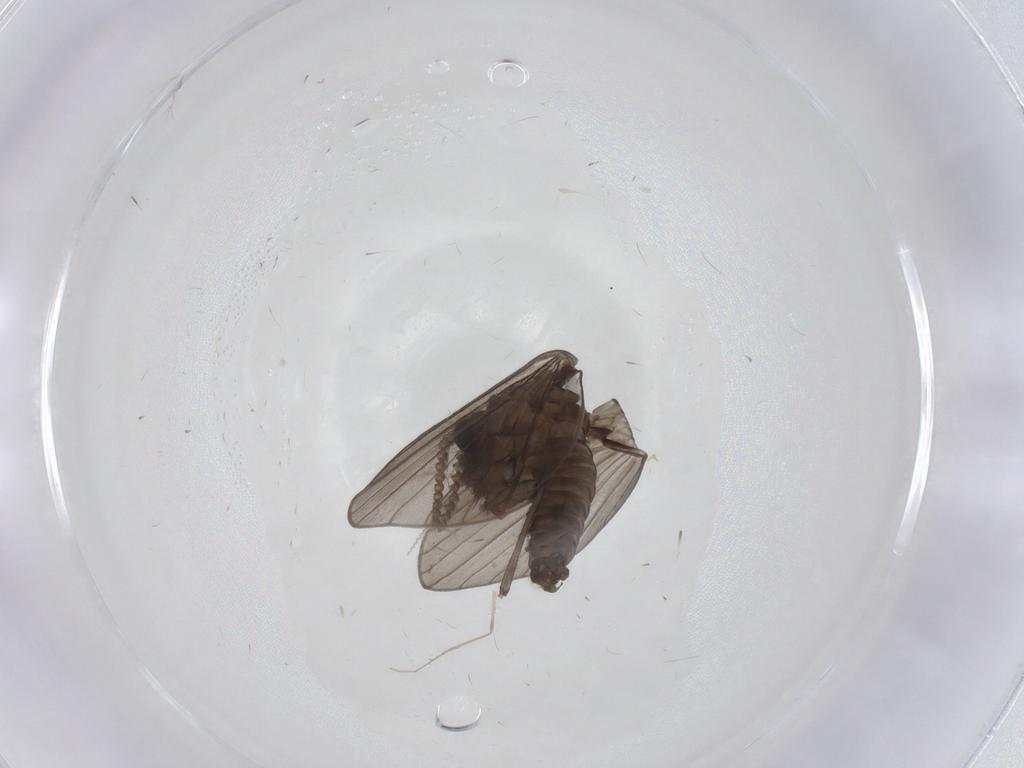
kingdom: Animalia
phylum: Arthropoda
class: Insecta
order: Diptera
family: Psychodidae
